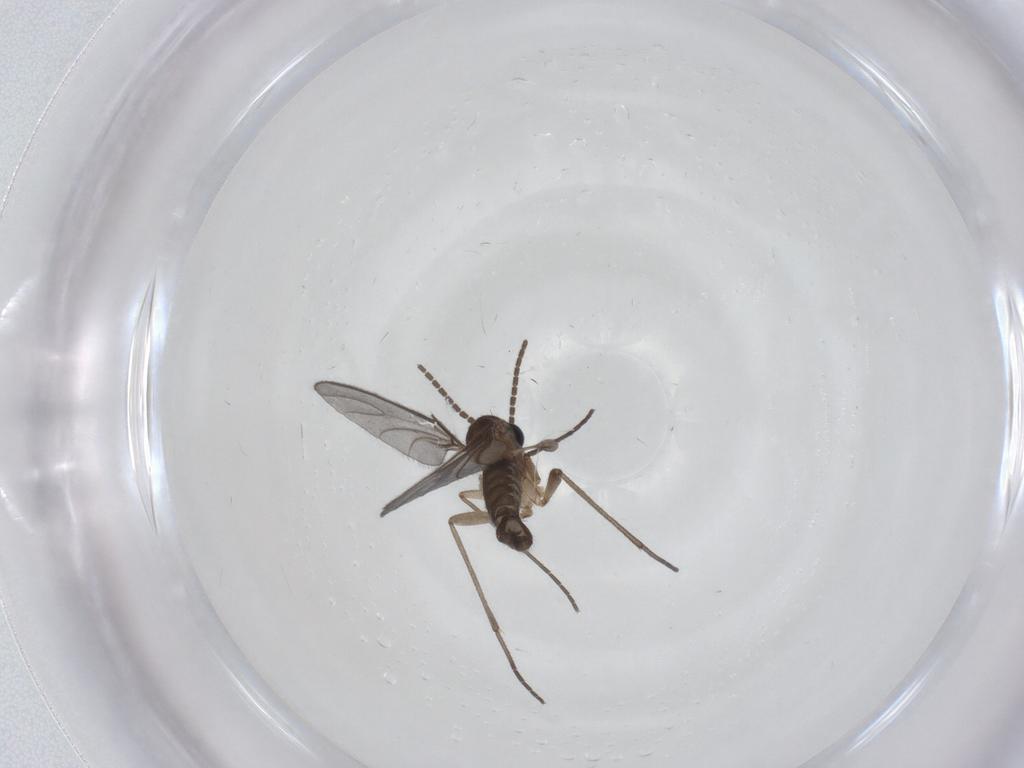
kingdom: Animalia
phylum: Arthropoda
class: Insecta
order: Diptera
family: Sciaridae
